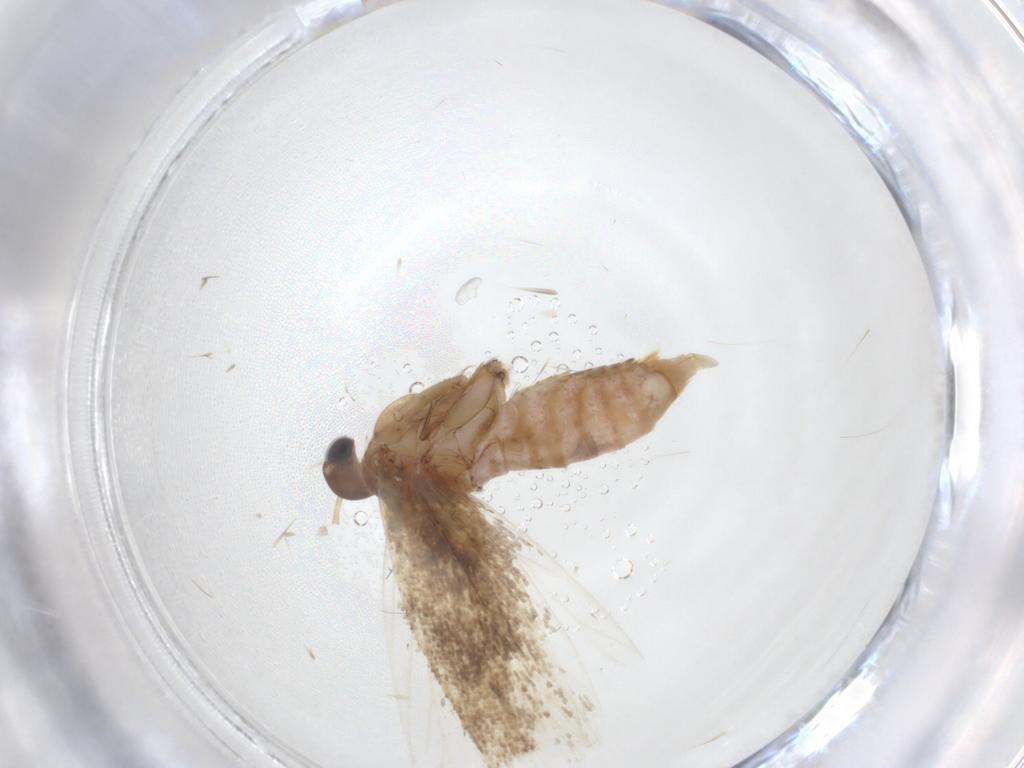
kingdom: Animalia
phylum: Arthropoda
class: Insecta
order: Lepidoptera
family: Gelechiidae
